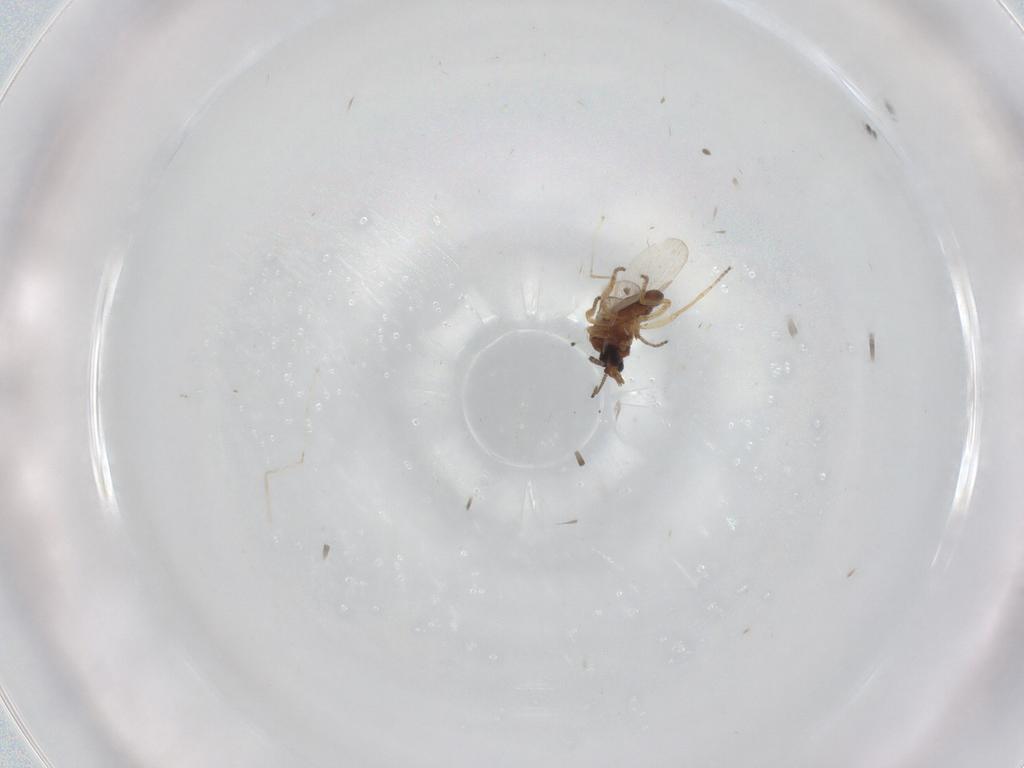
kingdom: Animalia
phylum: Arthropoda
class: Insecta
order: Diptera
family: Ceratopogonidae
